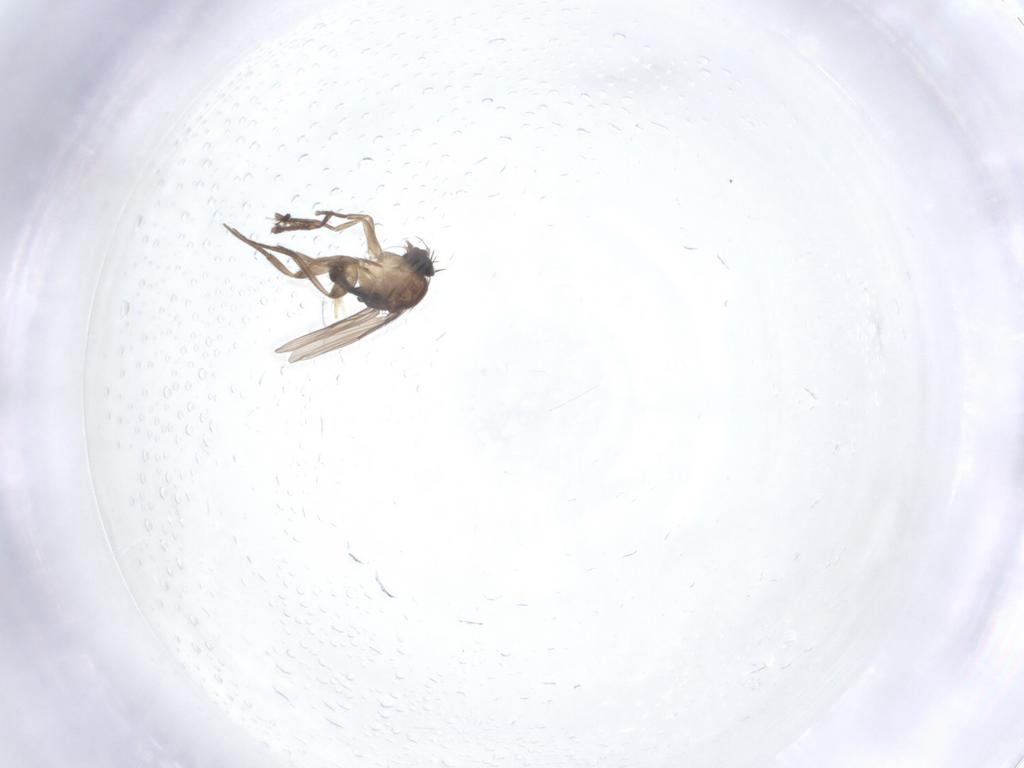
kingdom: Animalia
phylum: Arthropoda
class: Insecta
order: Diptera
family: Phoridae
